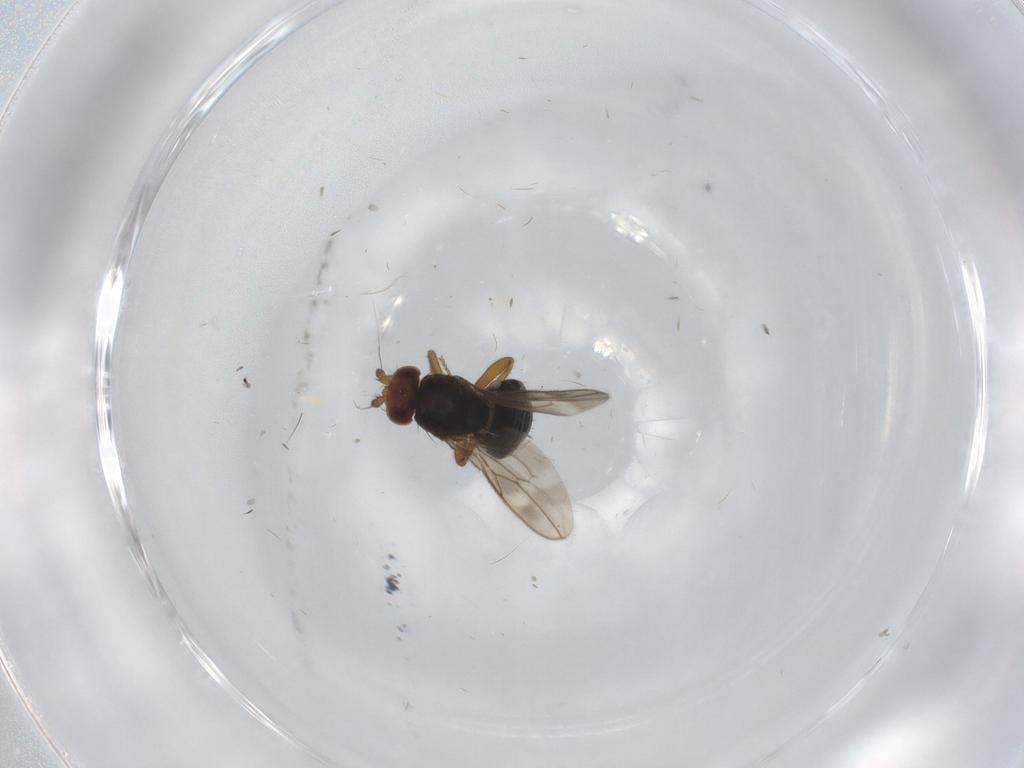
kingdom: Animalia
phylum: Arthropoda
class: Insecta
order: Diptera
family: Sphaeroceridae
